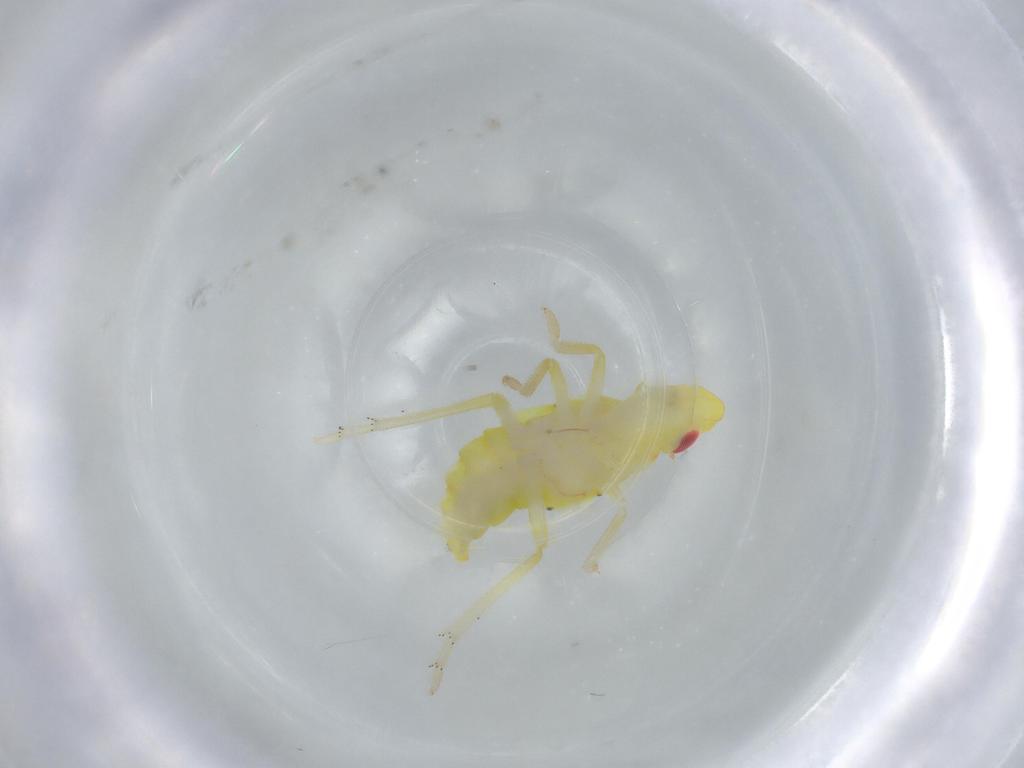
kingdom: Animalia
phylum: Arthropoda
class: Insecta
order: Hemiptera
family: Tropiduchidae
